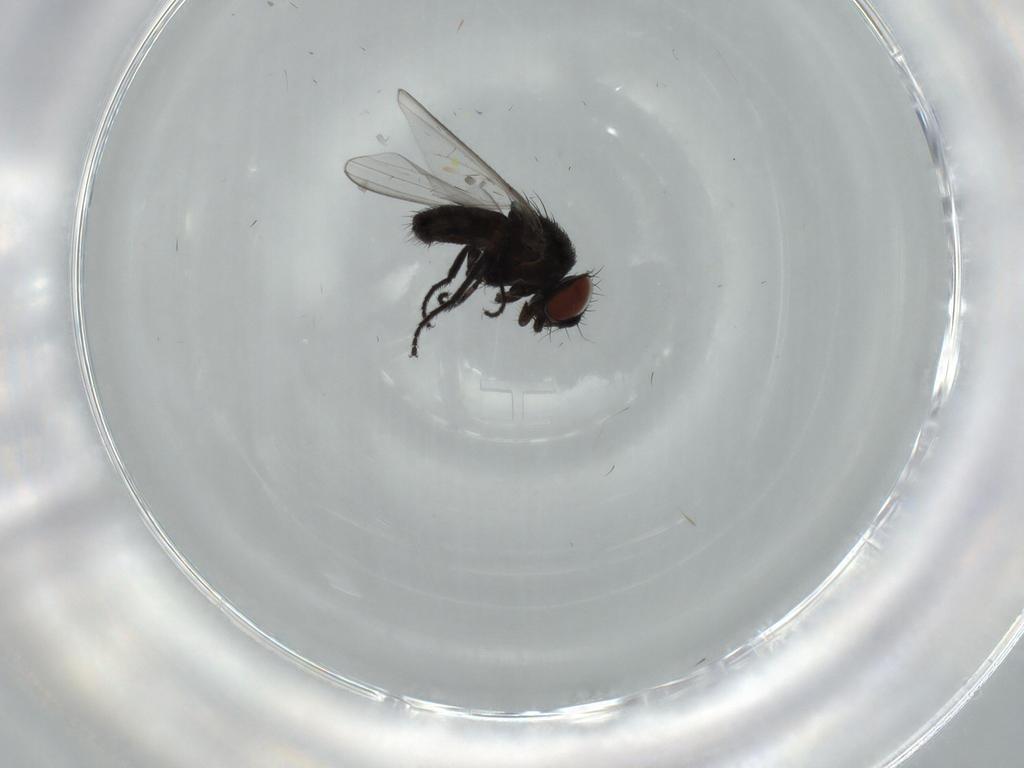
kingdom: Animalia
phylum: Arthropoda
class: Insecta
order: Diptera
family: Milichiidae
